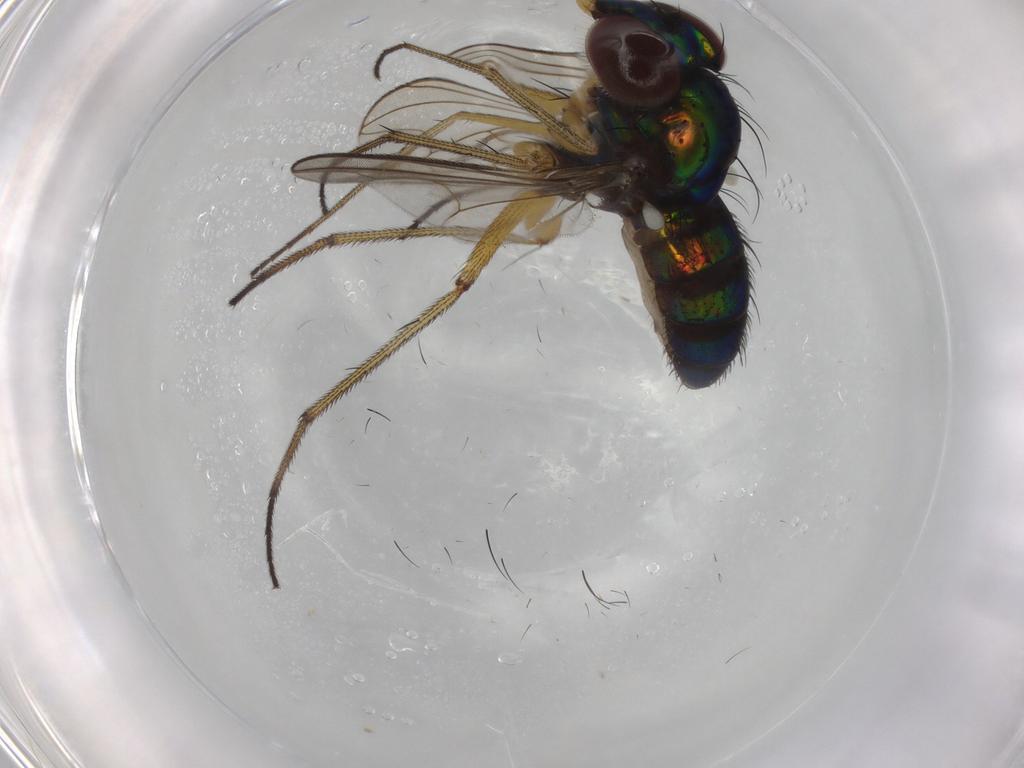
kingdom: Animalia
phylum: Arthropoda
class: Insecta
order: Diptera
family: Dolichopodidae
